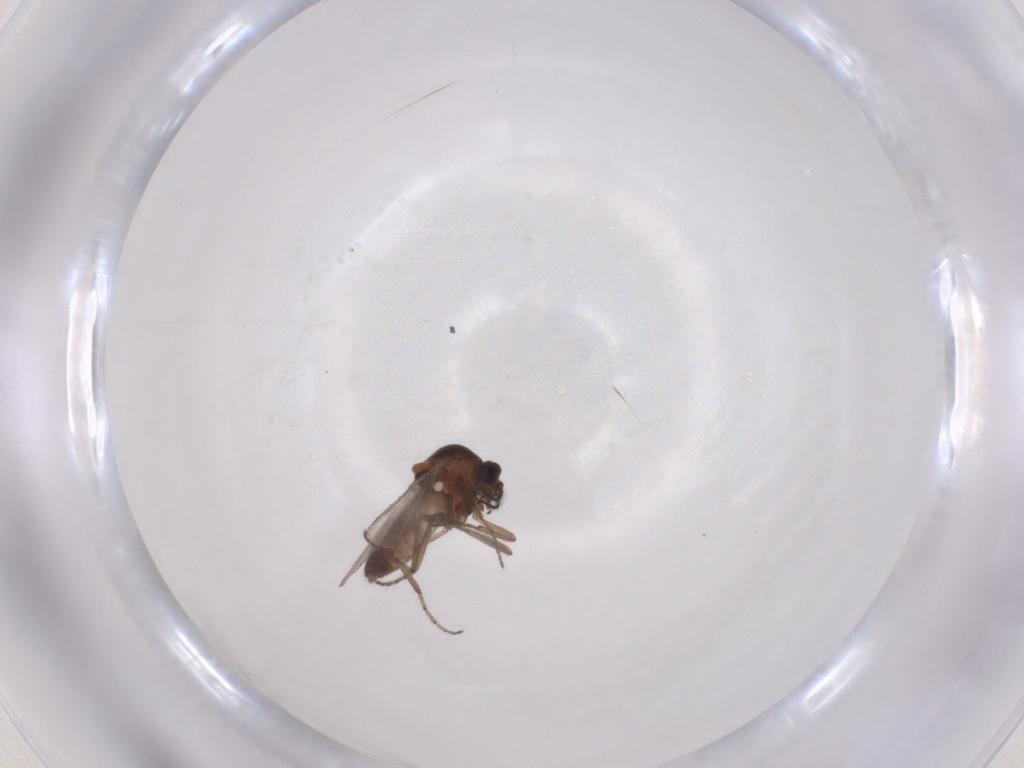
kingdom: Animalia
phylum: Arthropoda
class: Insecta
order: Diptera
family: Ceratopogonidae
